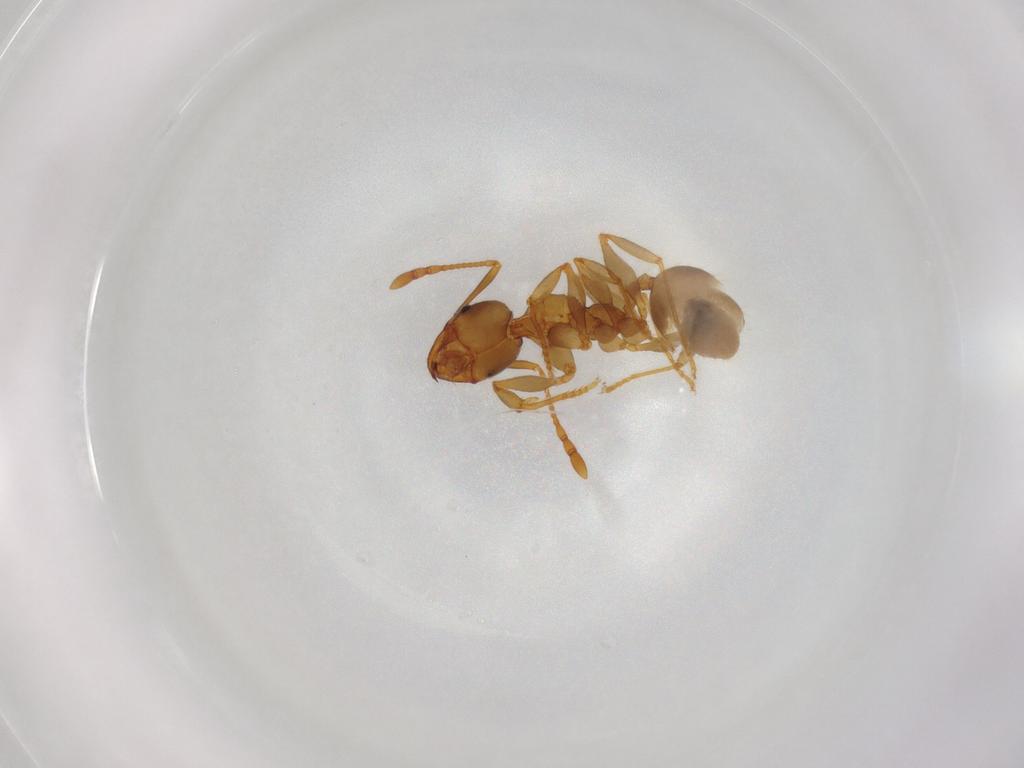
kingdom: Animalia
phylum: Arthropoda
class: Insecta
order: Hymenoptera
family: Formicidae
